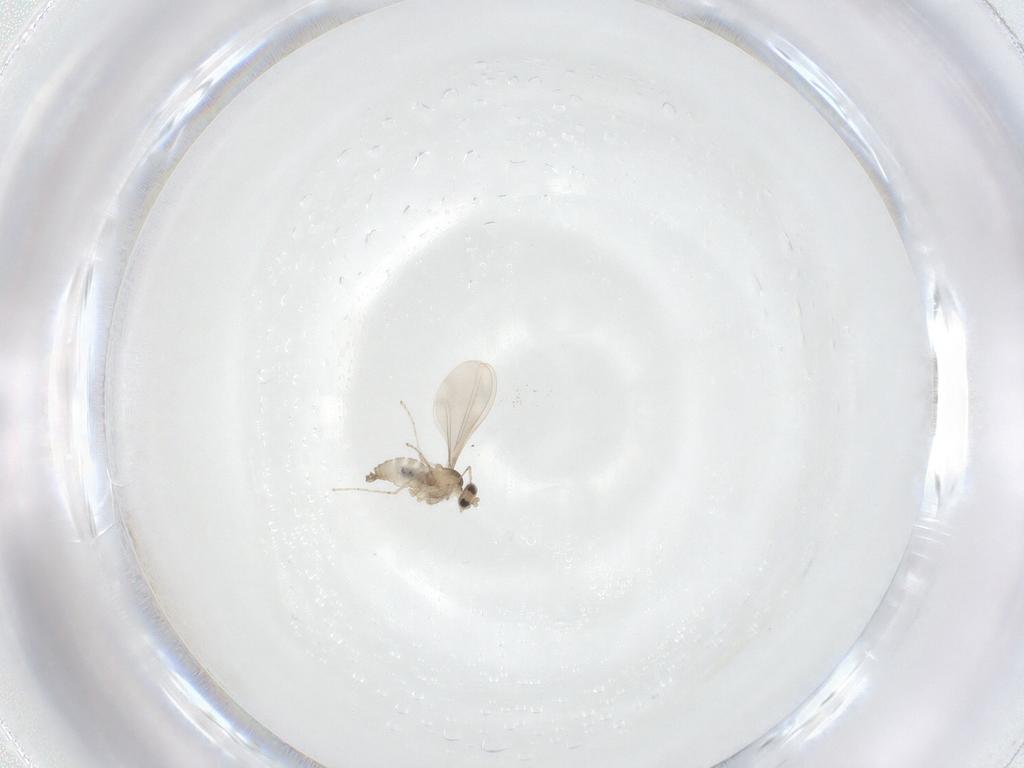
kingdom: Animalia
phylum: Arthropoda
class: Insecta
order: Diptera
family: Cecidomyiidae
